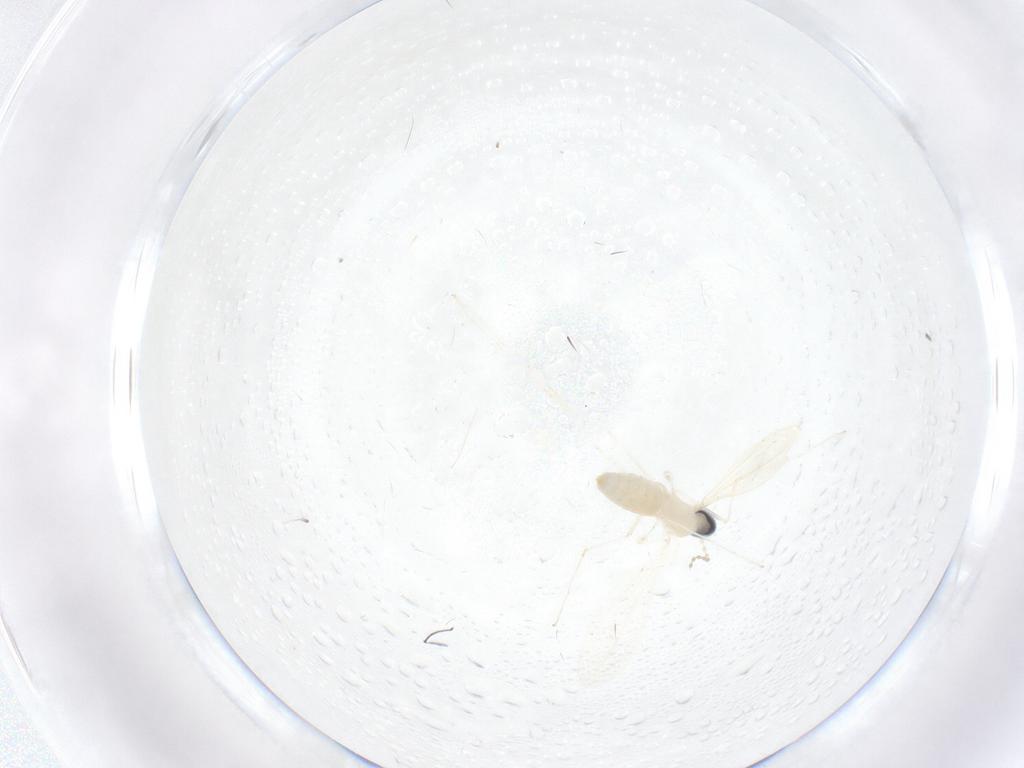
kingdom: Animalia
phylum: Arthropoda
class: Insecta
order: Diptera
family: Cecidomyiidae
